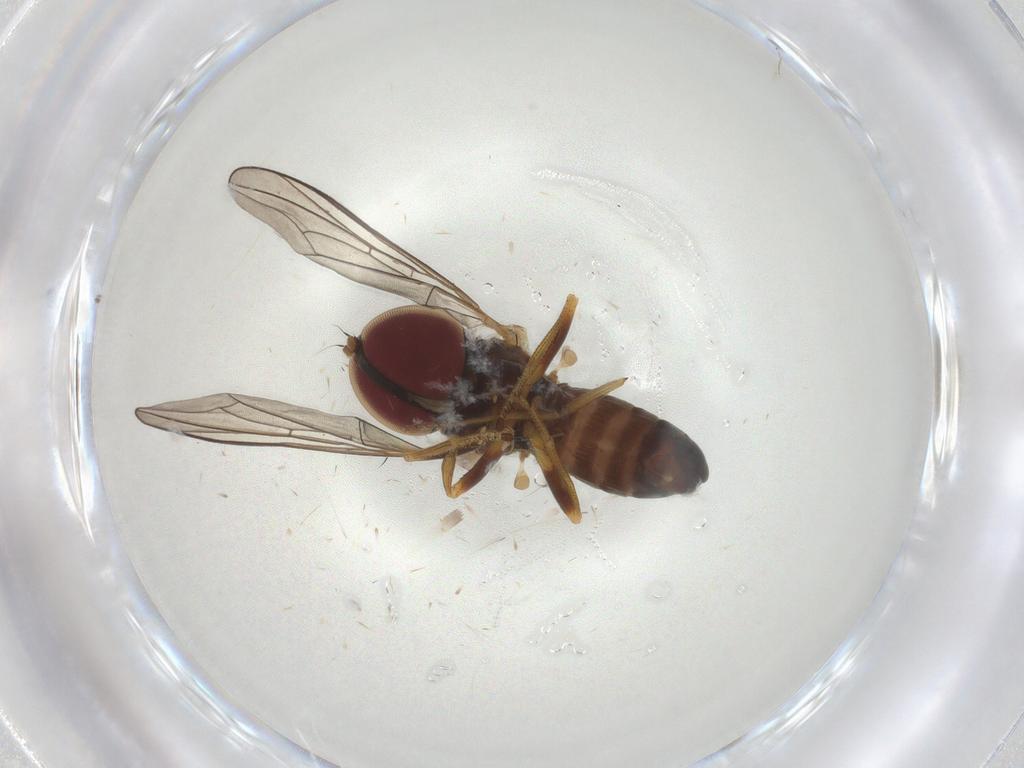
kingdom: Animalia
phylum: Arthropoda
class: Insecta
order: Diptera
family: Pipunculidae
